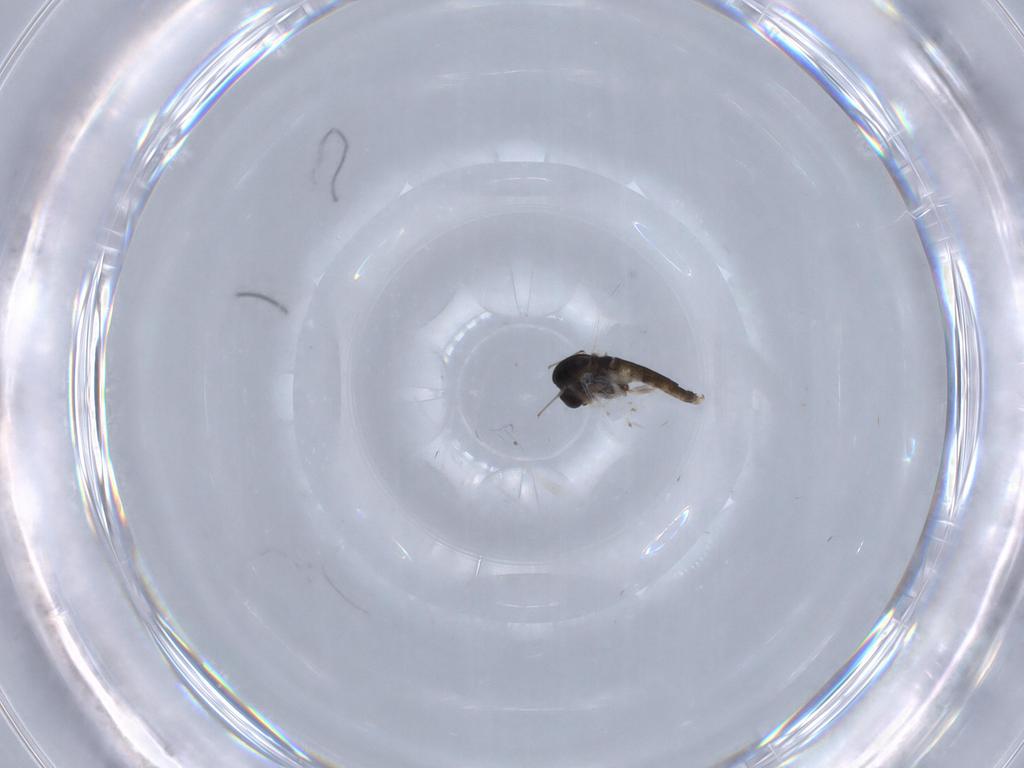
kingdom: Animalia
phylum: Arthropoda
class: Insecta
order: Diptera
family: Chironomidae
